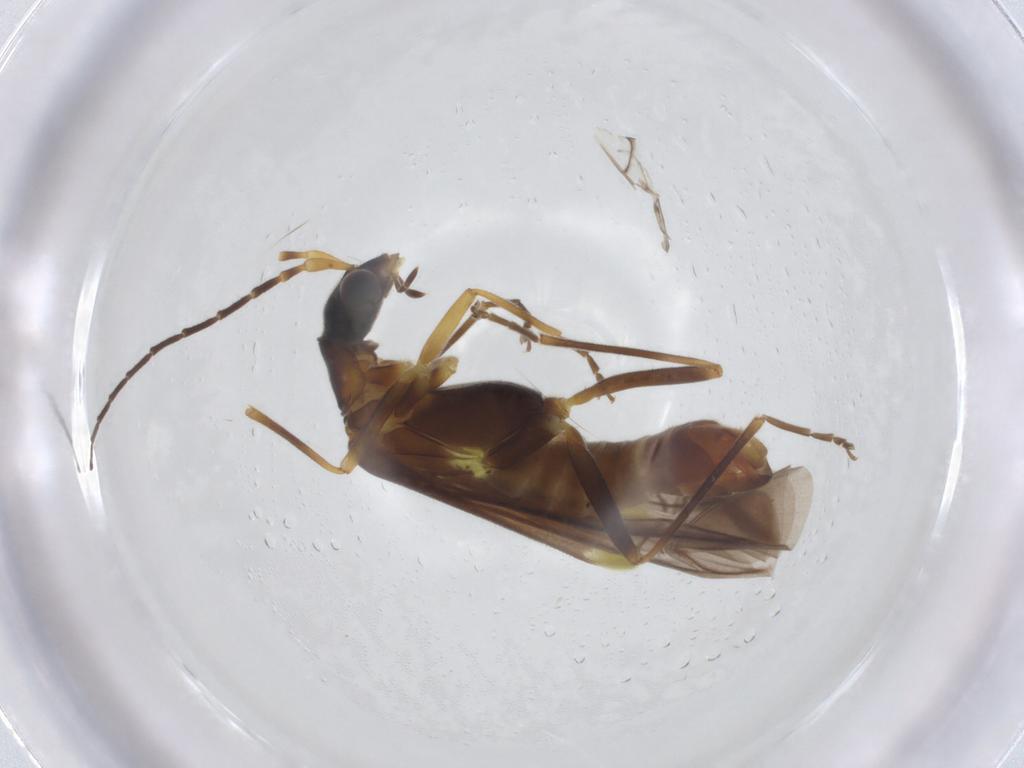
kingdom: Animalia
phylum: Arthropoda
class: Insecta
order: Coleoptera
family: Cantharidae
